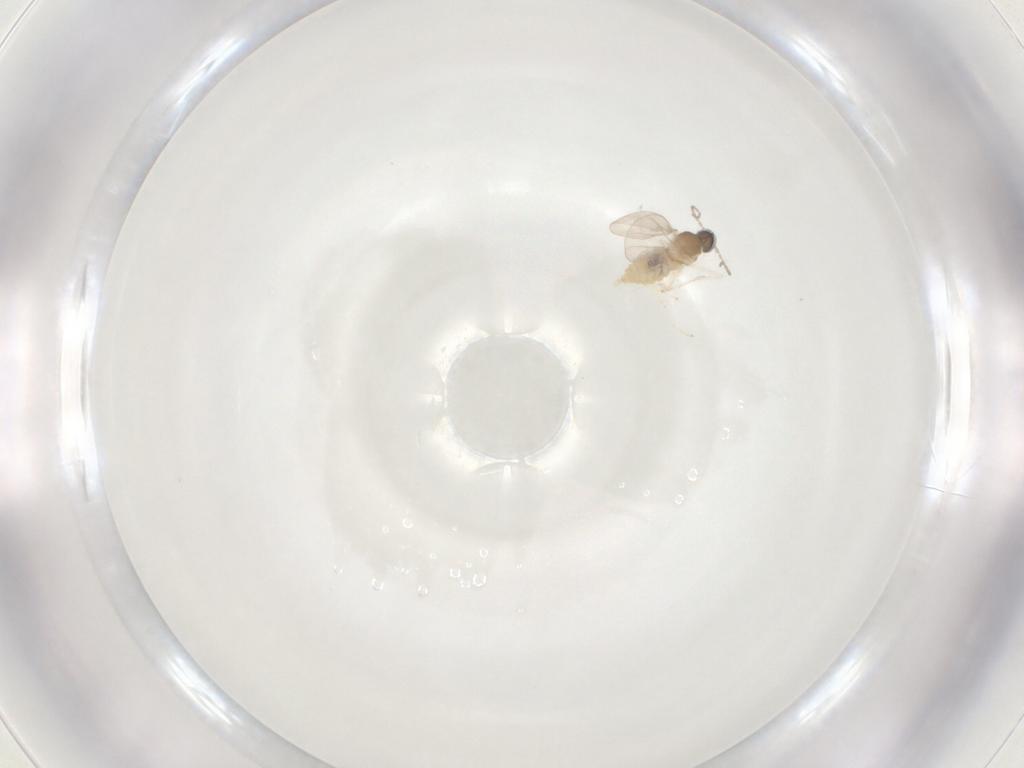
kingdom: Animalia
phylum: Arthropoda
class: Insecta
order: Diptera
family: Cecidomyiidae
